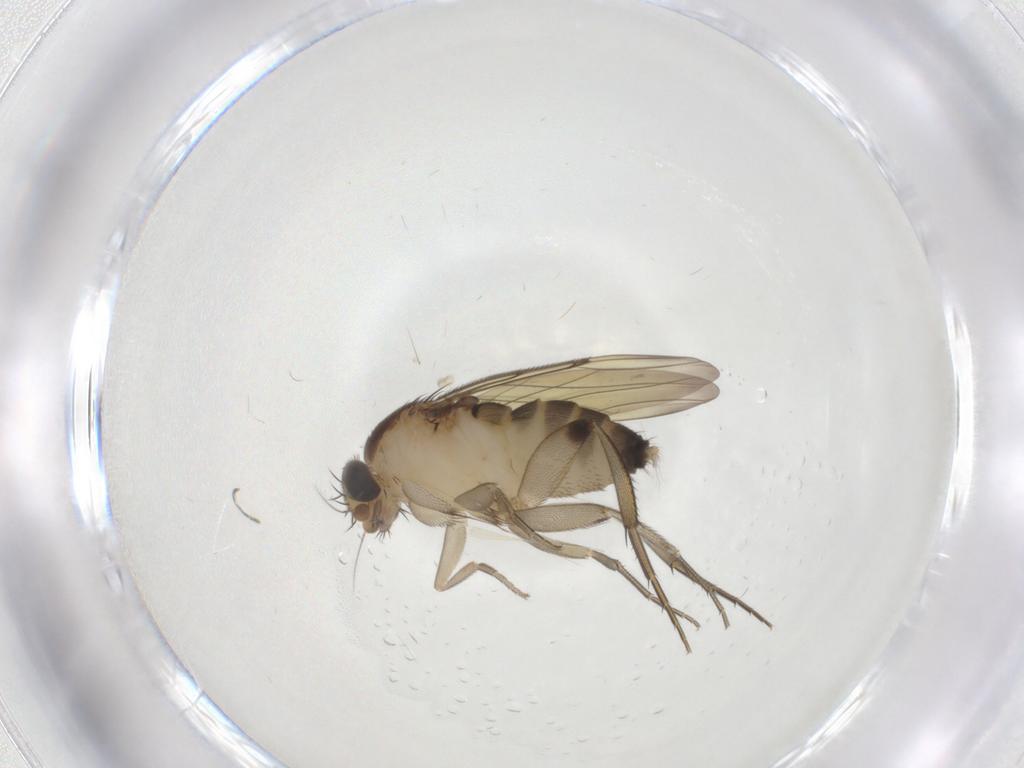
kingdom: Animalia
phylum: Arthropoda
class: Insecta
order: Diptera
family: Phoridae
